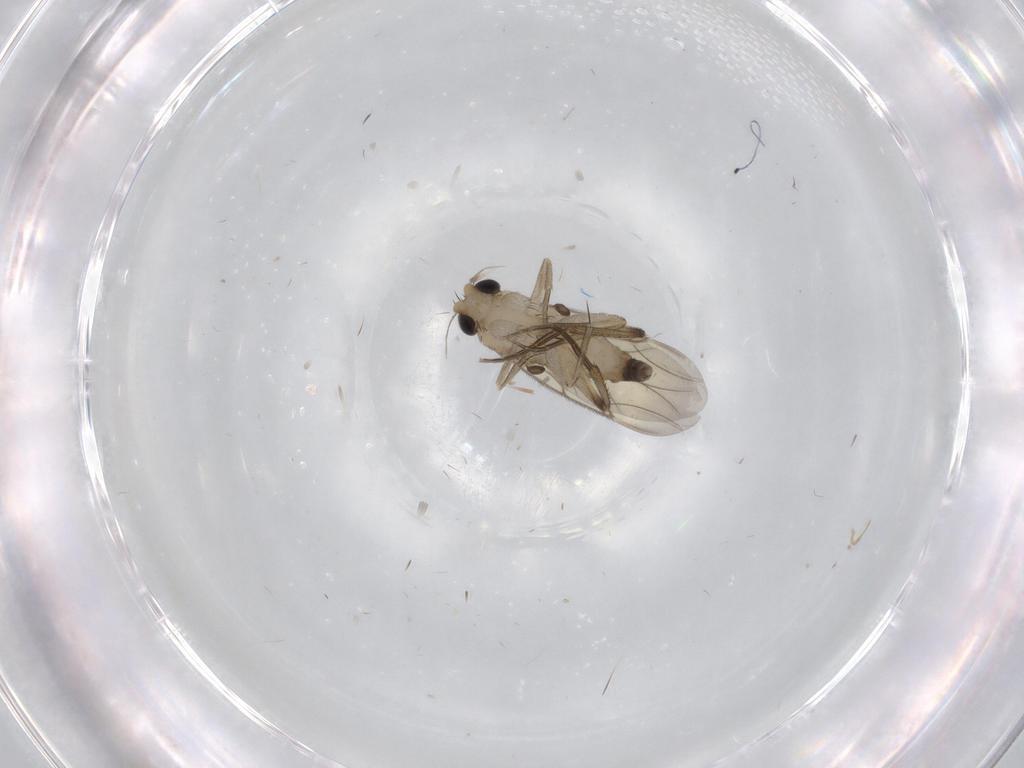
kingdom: Animalia
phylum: Arthropoda
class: Insecta
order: Diptera
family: Phoridae
